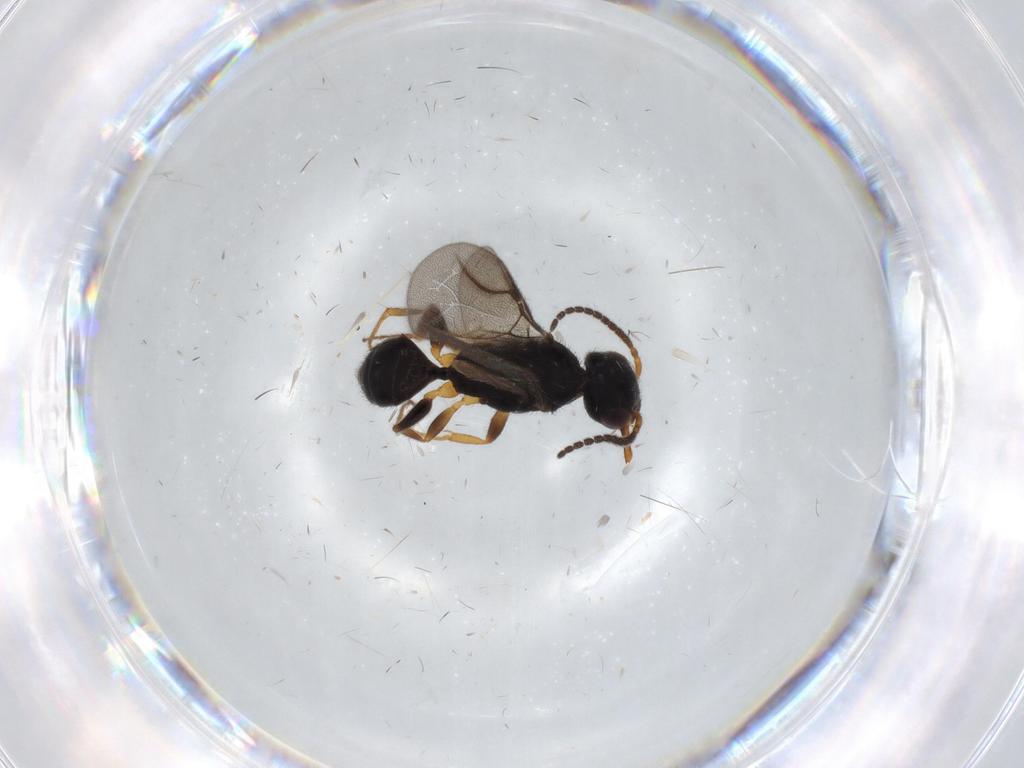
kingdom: Animalia
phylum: Arthropoda
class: Insecta
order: Hymenoptera
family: Bethylidae
